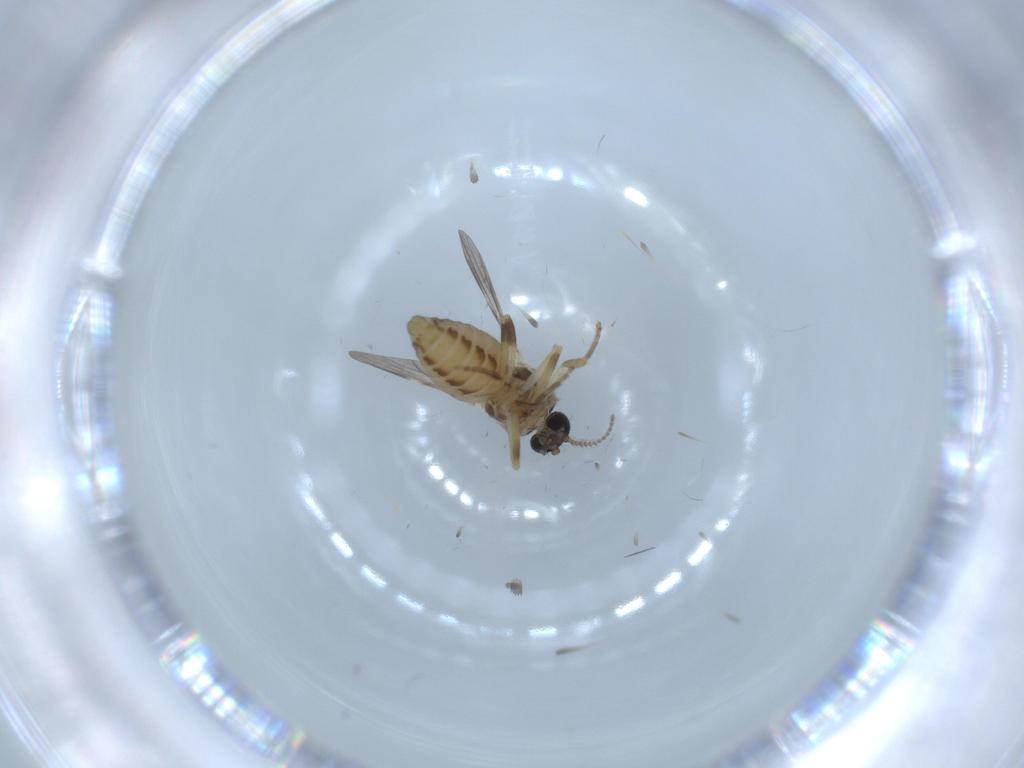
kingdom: Animalia
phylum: Arthropoda
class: Insecta
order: Diptera
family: Ceratopogonidae
